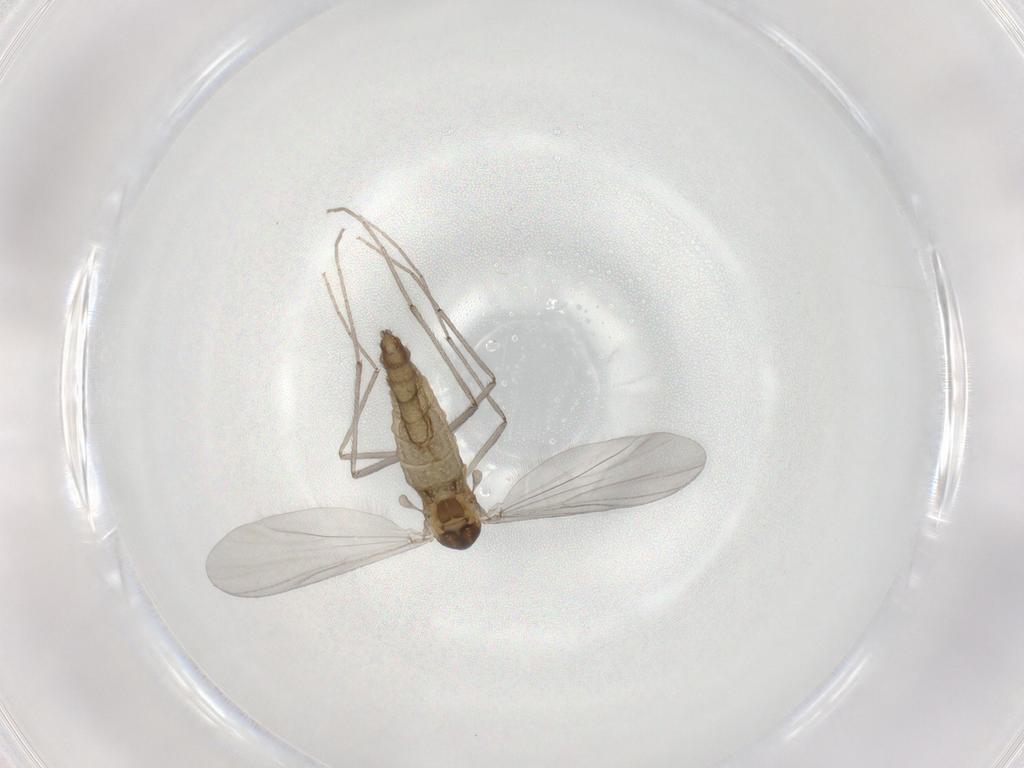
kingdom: Animalia
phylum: Arthropoda
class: Insecta
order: Diptera
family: Chironomidae
